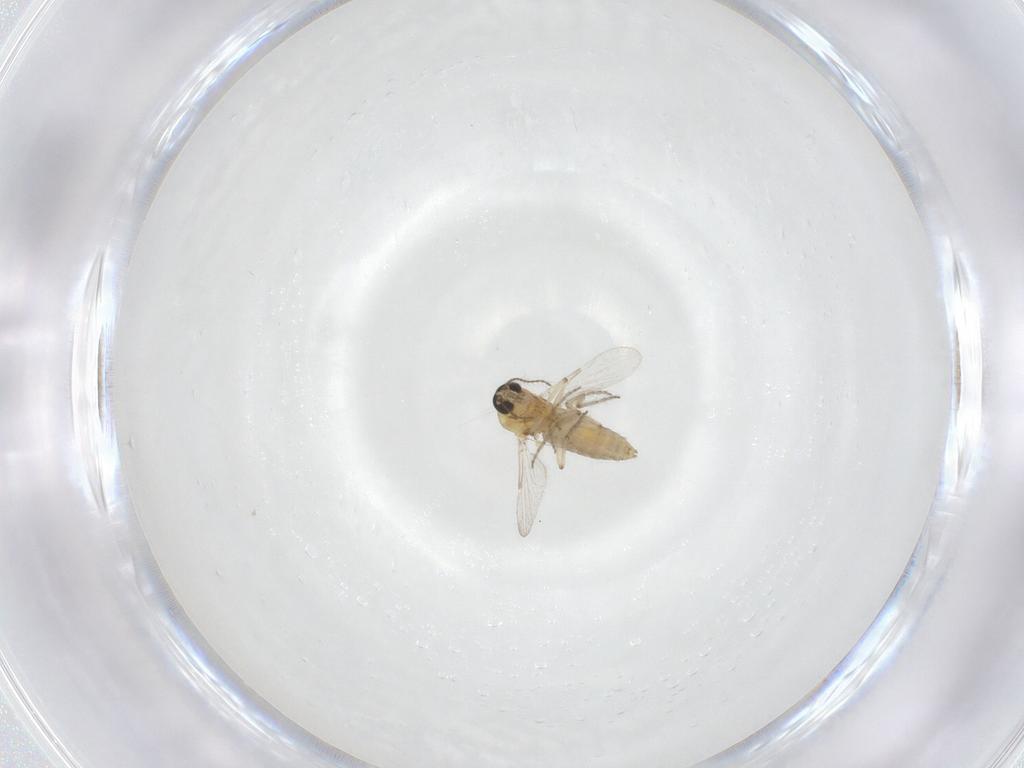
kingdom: Animalia
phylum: Arthropoda
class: Insecta
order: Diptera
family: Ceratopogonidae
